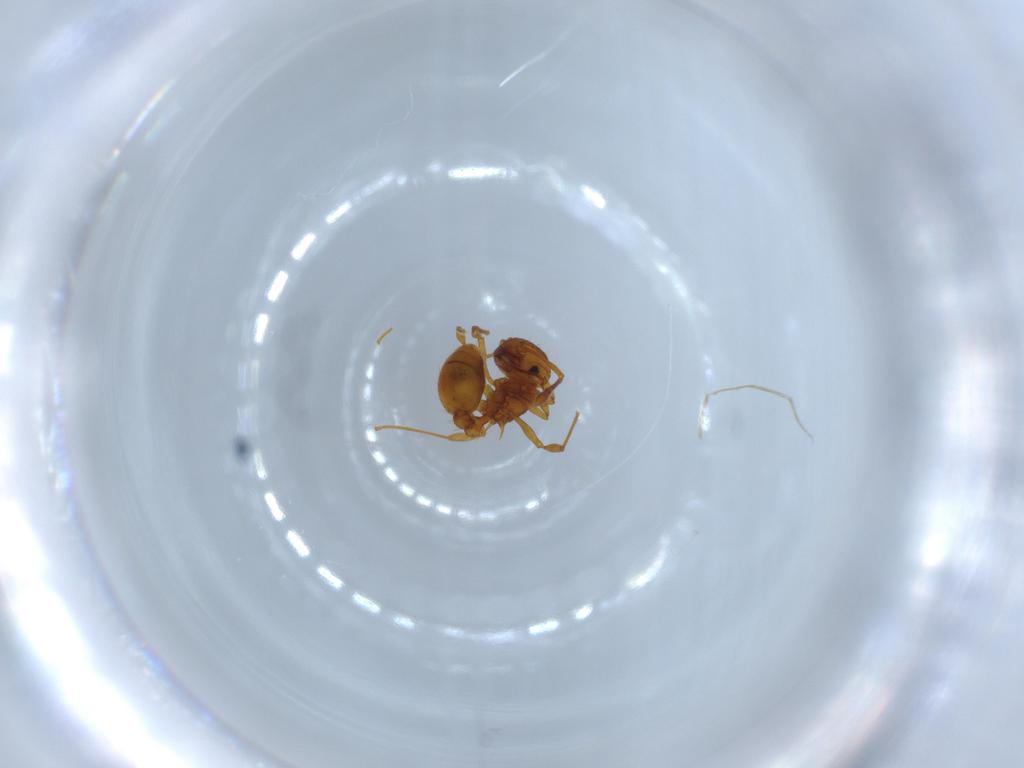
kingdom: Animalia
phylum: Arthropoda
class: Insecta
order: Hymenoptera
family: Formicidae
